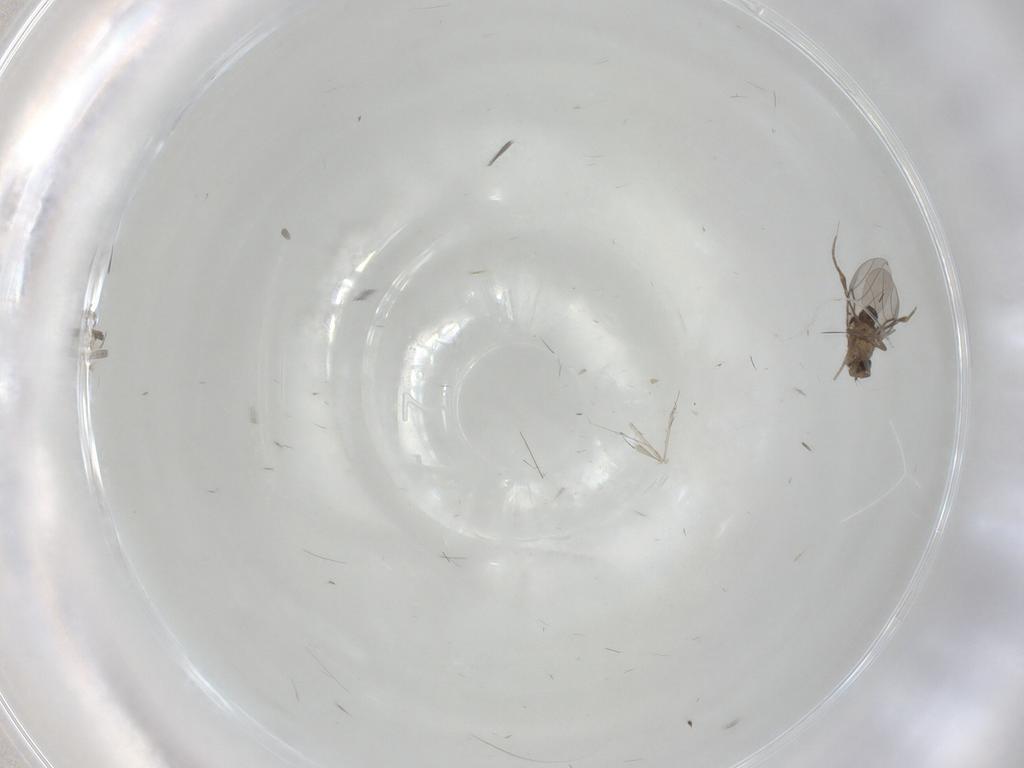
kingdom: Animalia
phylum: Arthropoda
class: Insecta
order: Diptera
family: Phoridae
